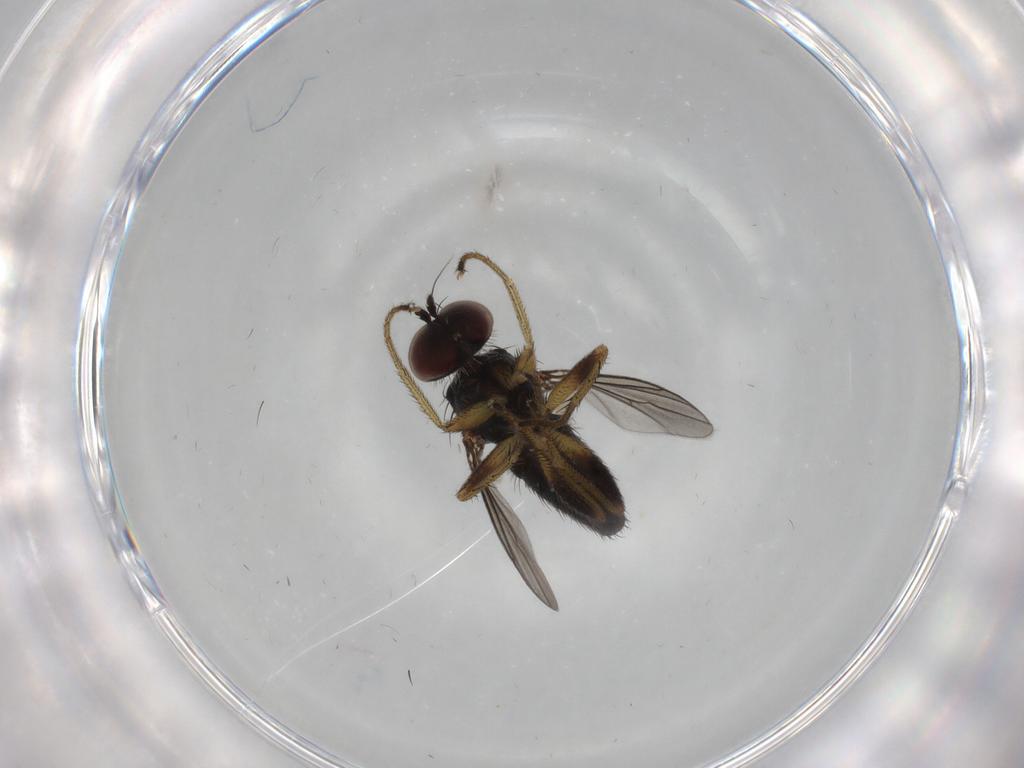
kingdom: Animalia
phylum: Arthropoda
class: Insecta
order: Diptera
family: Dolichopodidae
